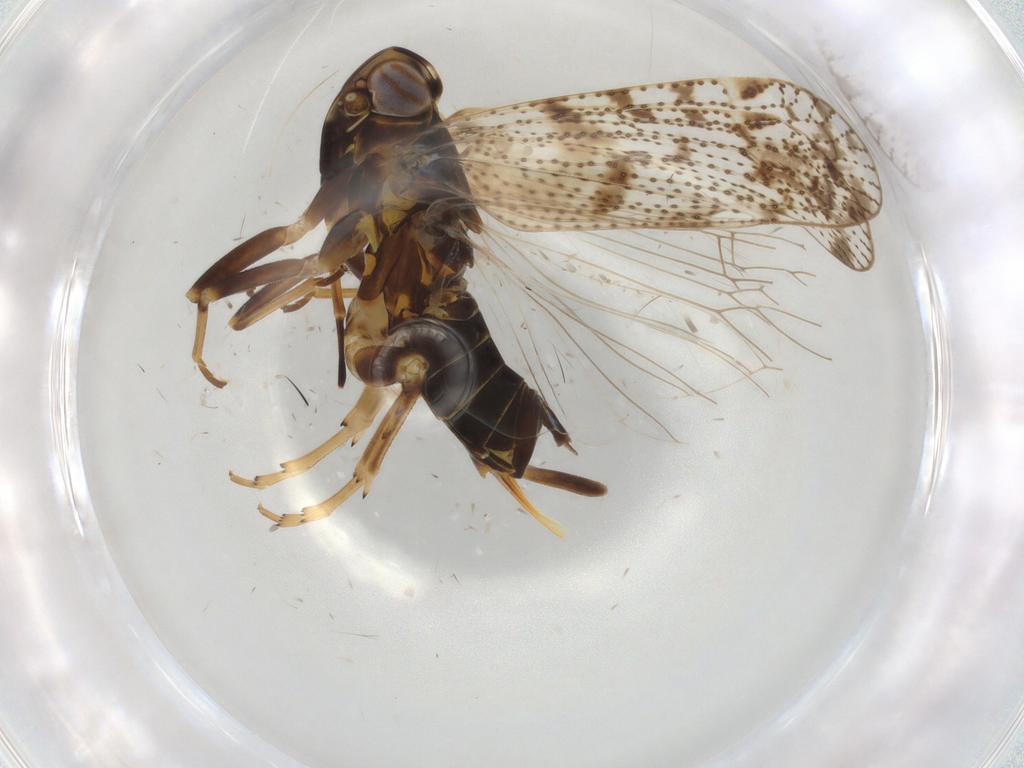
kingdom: Animalia
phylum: Arthropoda
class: Insecta
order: Hemiptera
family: Cixiidae
